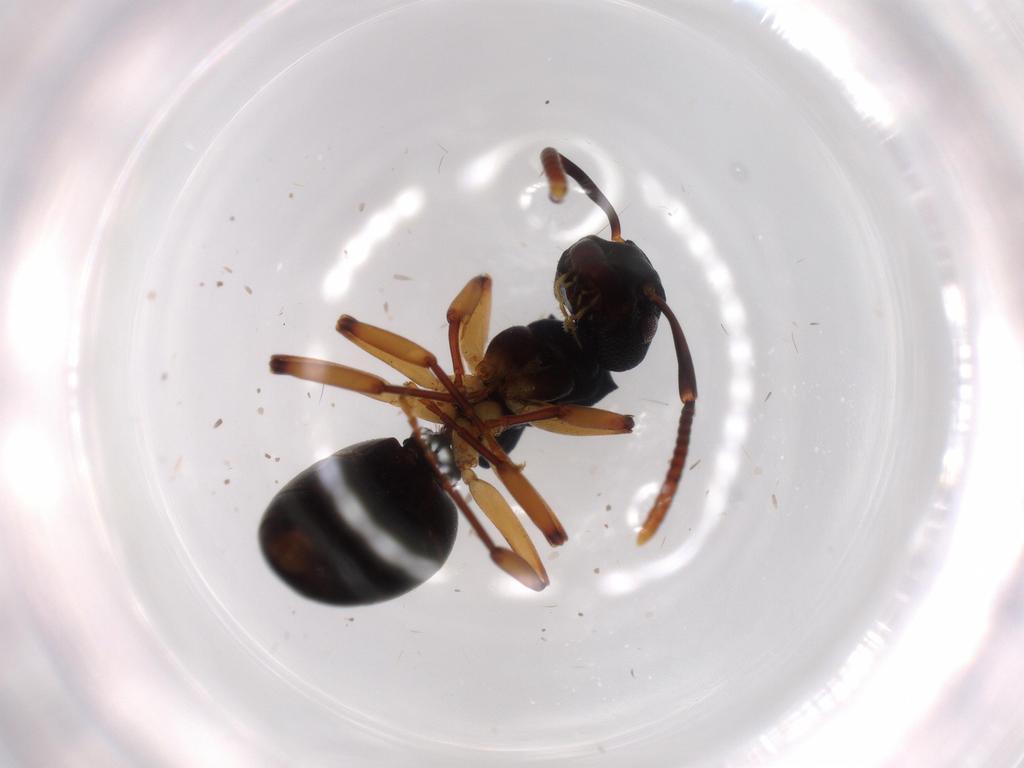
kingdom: Animalia
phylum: Arthropoda
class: Insecta
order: Hymenoptera
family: Formicidae
